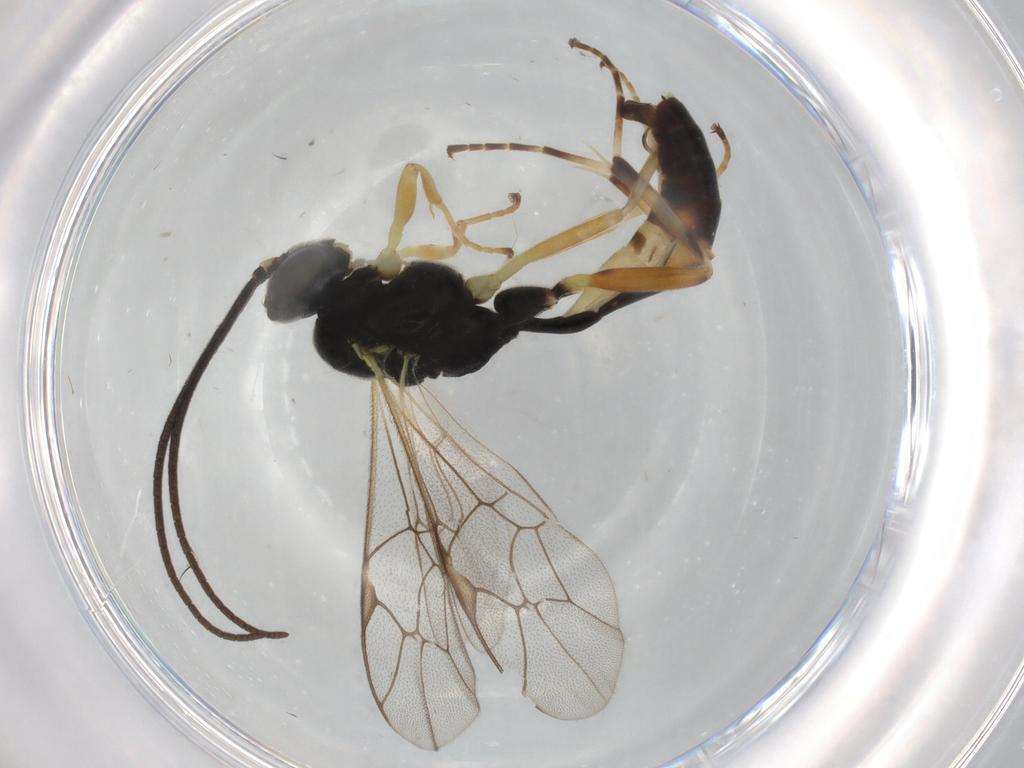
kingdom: Animalia
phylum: Arthropoda
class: Insecta
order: Hymenoptera
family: Ichneumonidae
